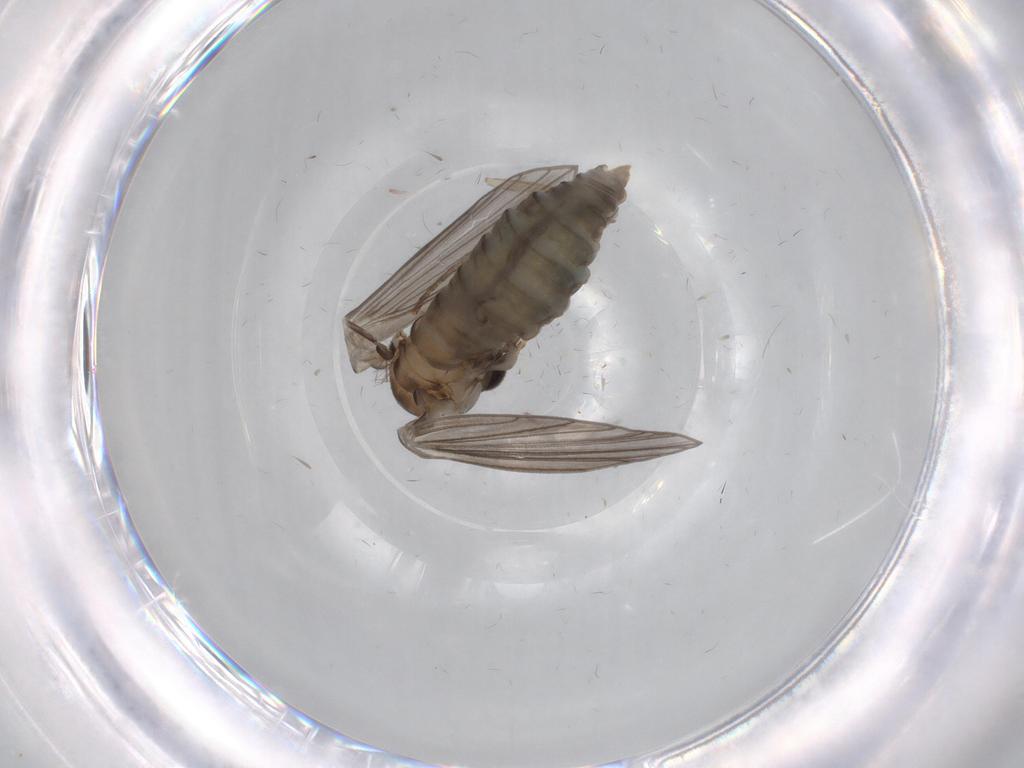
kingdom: Animalia
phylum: Arthropoda
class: Insecta
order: Diptera
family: Psychodidae
